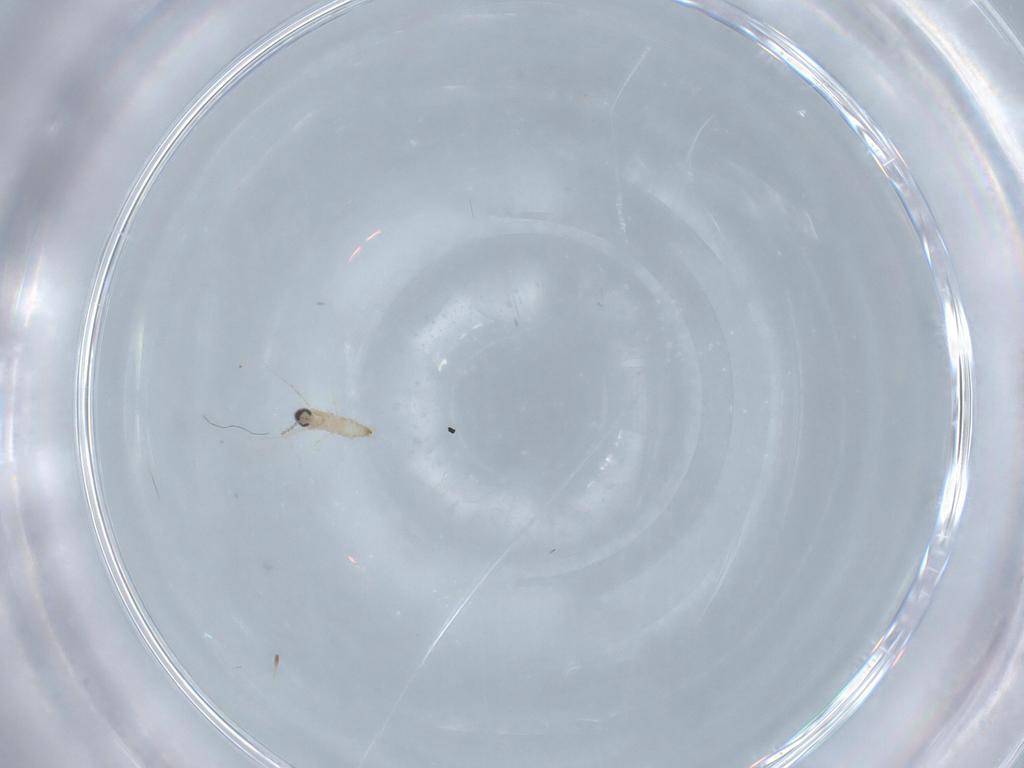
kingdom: Animalia
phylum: Arthropoda
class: Insecta
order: Diptera
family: Cecidomyiidae
